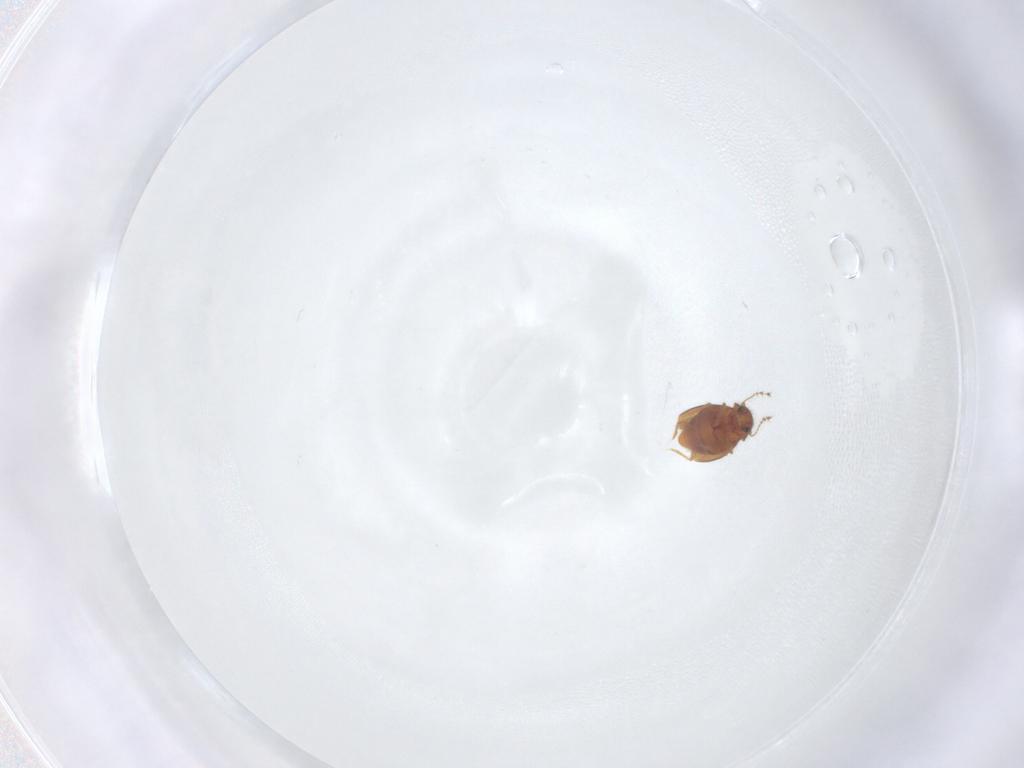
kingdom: Animalia
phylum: Arthropoda
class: Insecta
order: Coleoptera
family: Ptiliidae
